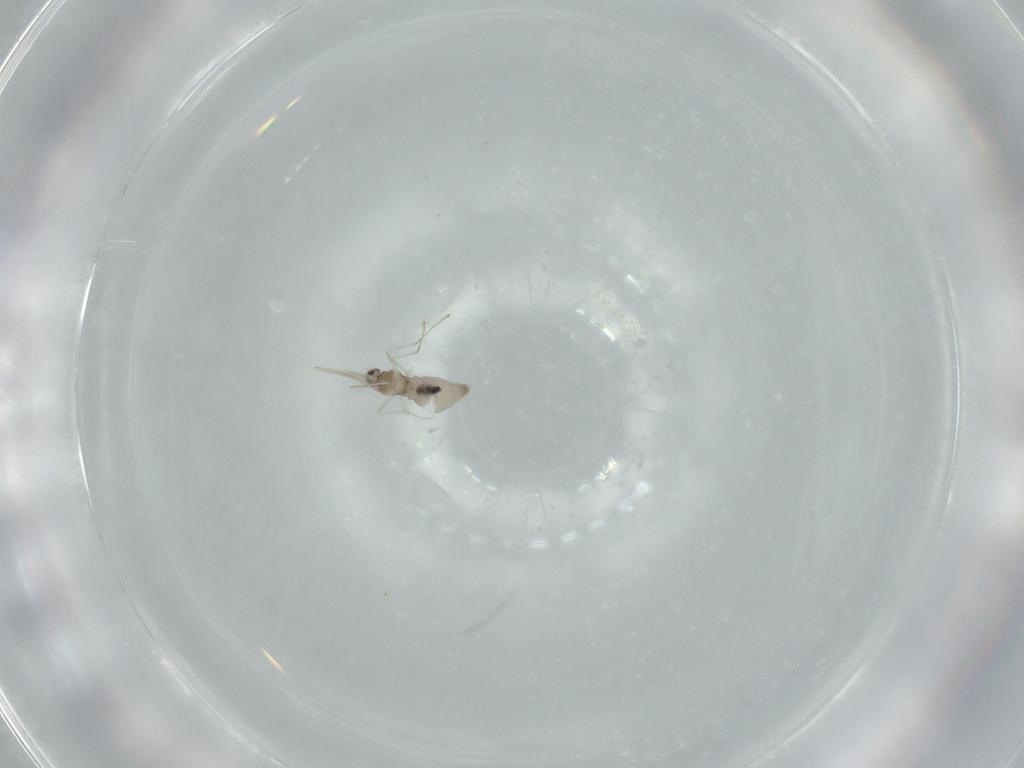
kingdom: Animalia
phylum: Arthropoda
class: Insecta
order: Diptera
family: Cecidomyiidae
